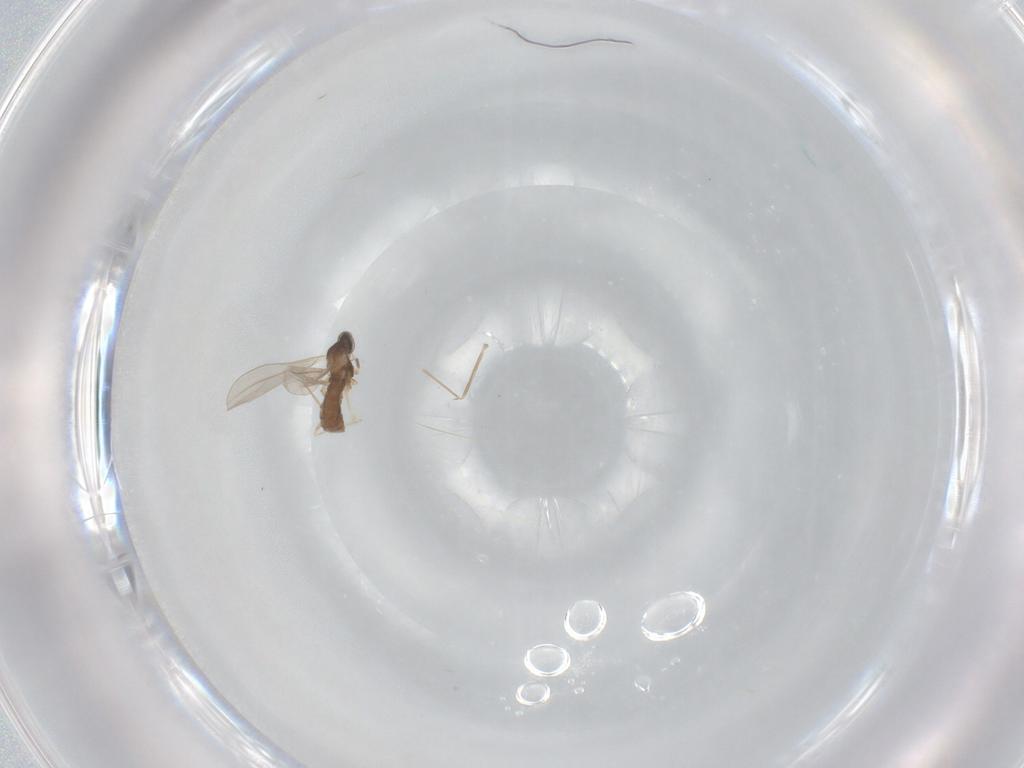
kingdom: Animalia
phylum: Arthropoda
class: Insecta
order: Diptera
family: Cecidomyiidae
